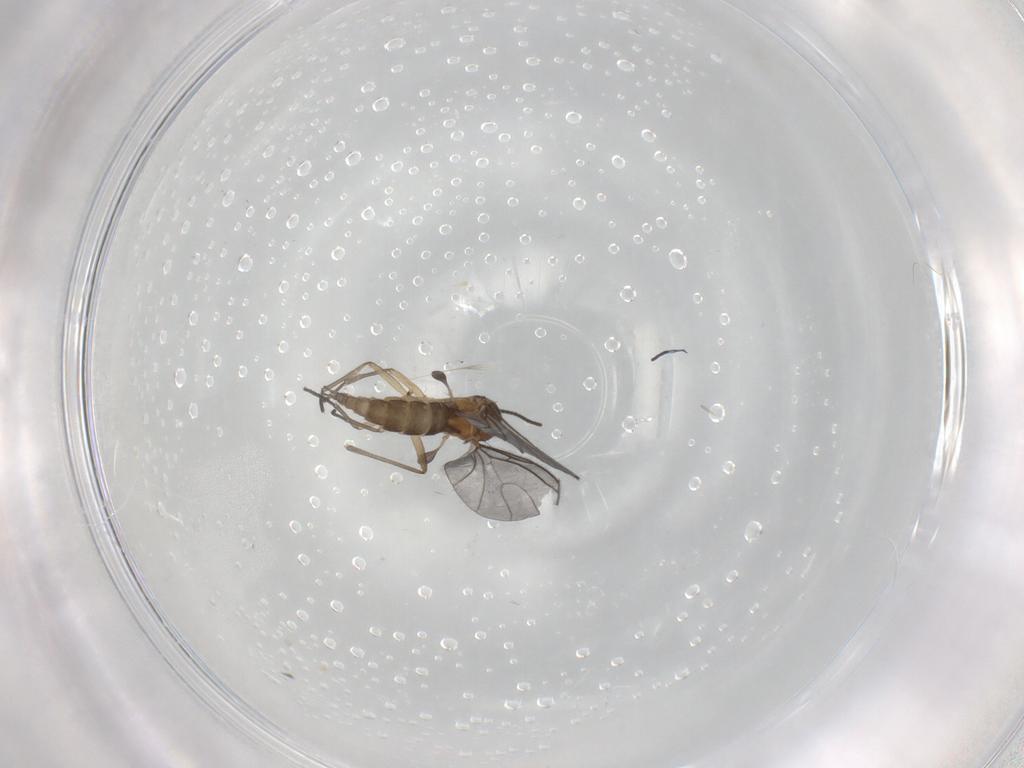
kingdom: Animalia
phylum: Arthropoda
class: Insecta
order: Diptera
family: Sciaridae
